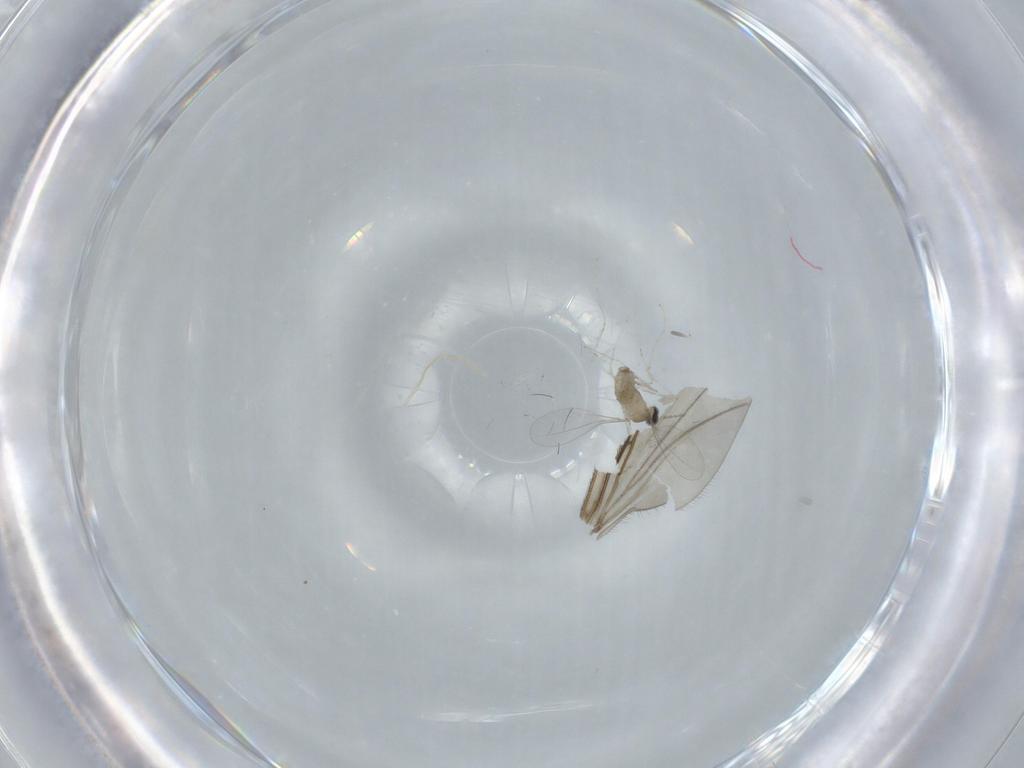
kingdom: Animalia
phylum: Arthropoda
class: Insecta
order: Diptera
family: Cecidomyiidae
